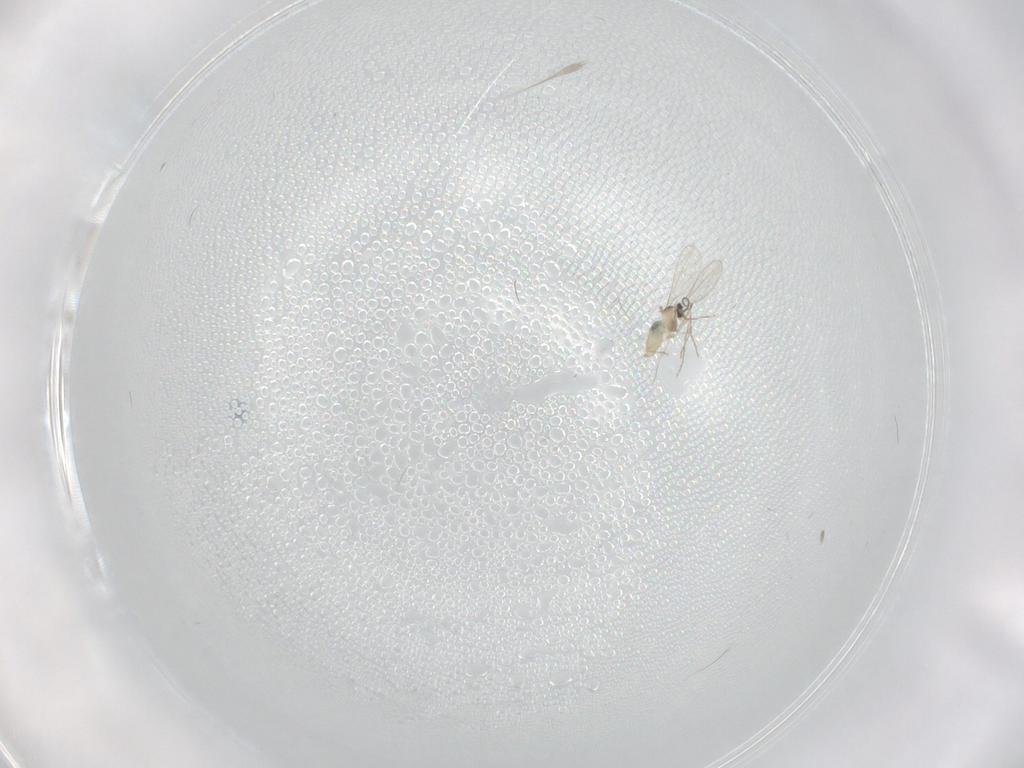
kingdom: Animalia
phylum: Arthropoda
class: Insecta
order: Diptera
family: Cecidomyiidae
